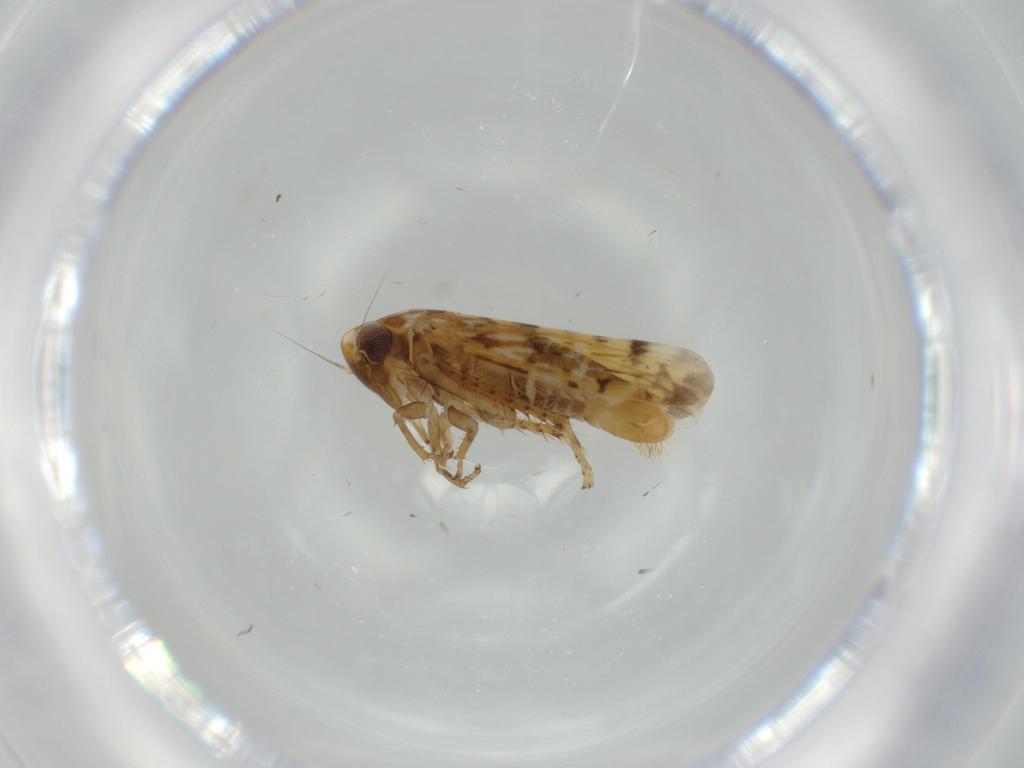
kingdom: Animalia
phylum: Arthropoda
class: Insecta
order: Hemiptera
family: Cicadellidae
